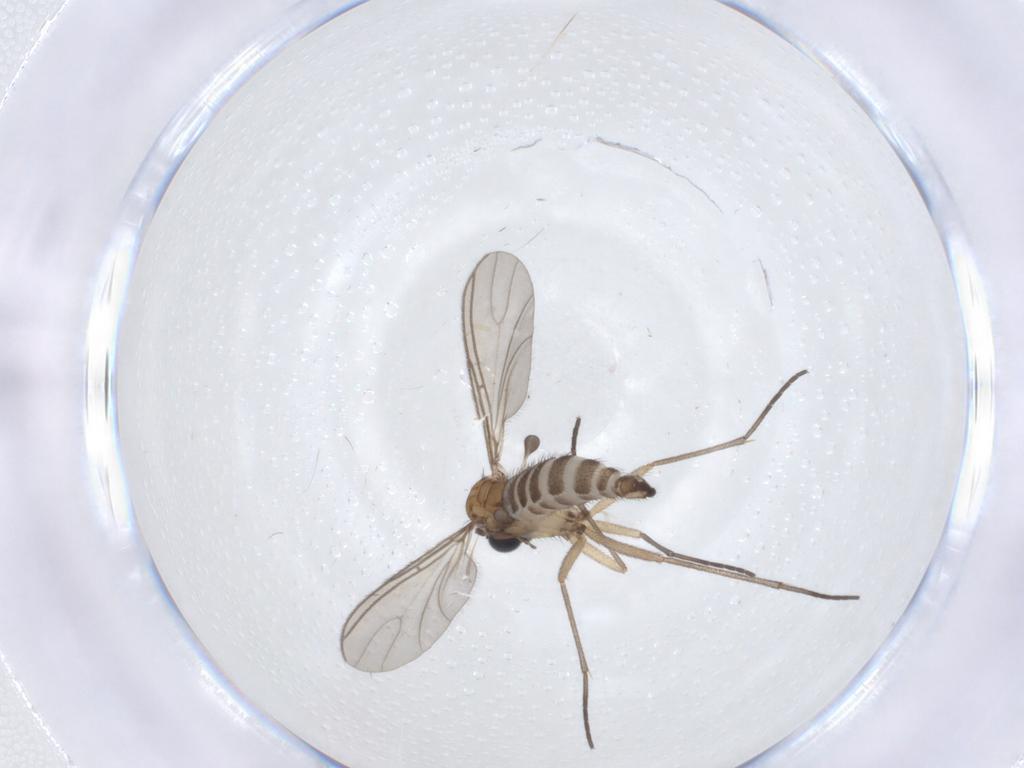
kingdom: Animalia
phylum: Arthropoda
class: Insecta
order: Diptera
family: Sciaridae
